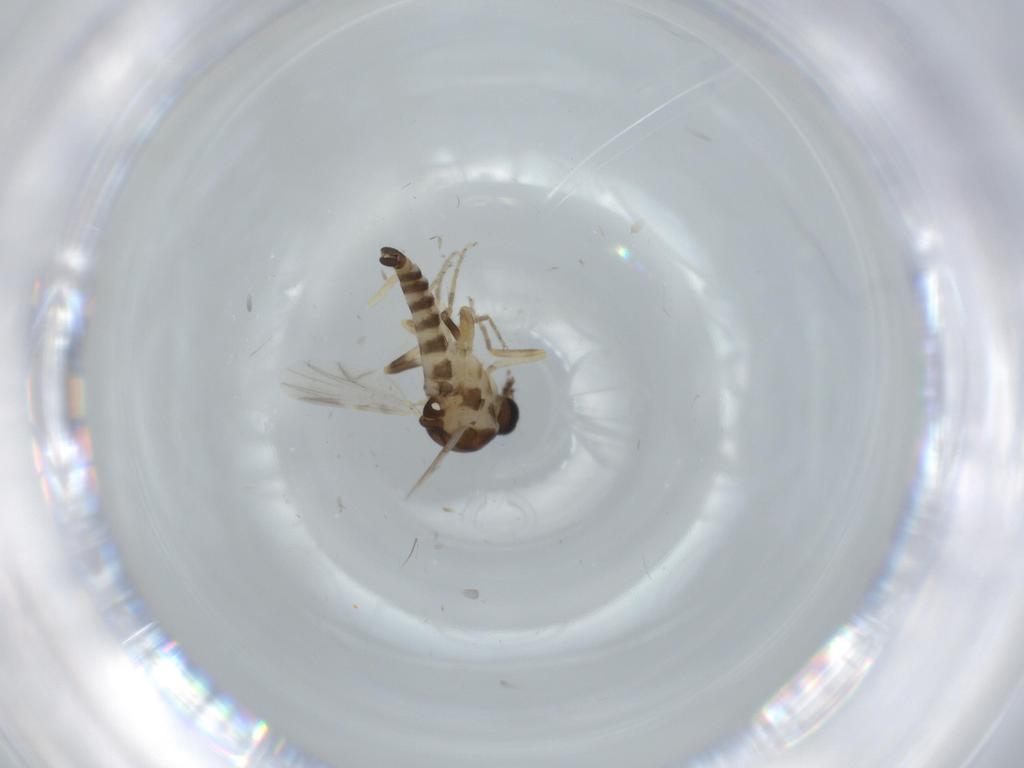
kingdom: Animalia
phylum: Arthropoda
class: Insecta
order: Diptera
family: Ceratopogonidae
